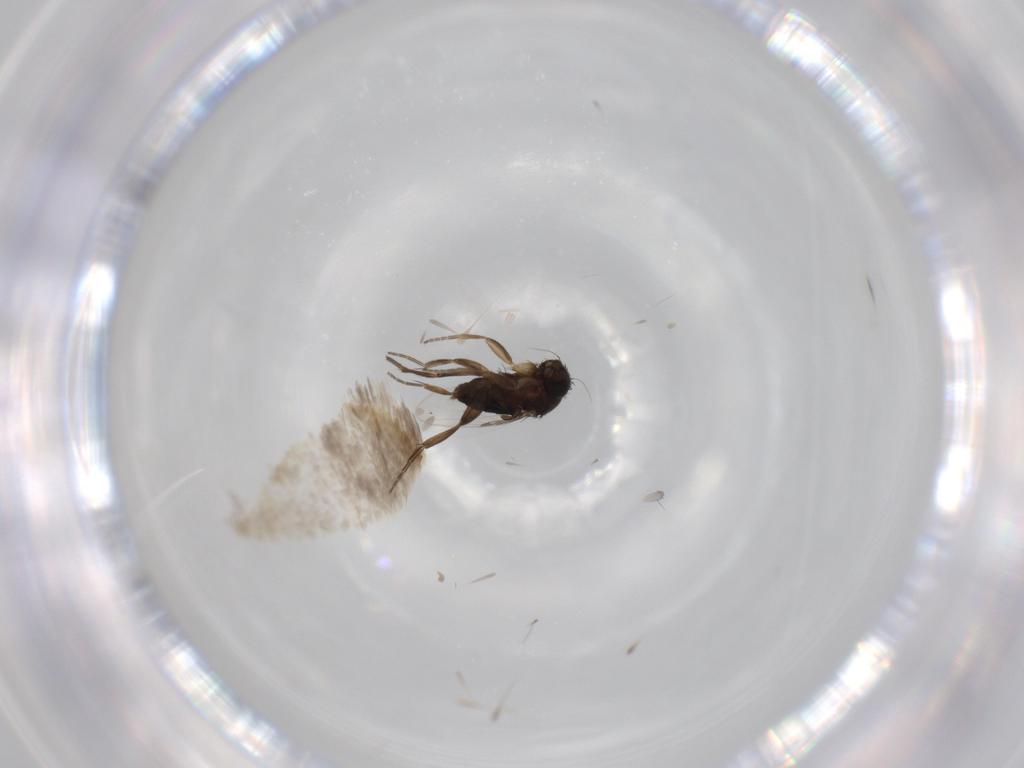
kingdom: Animalia
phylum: Arthropoda
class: Insecta
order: Diptera
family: Phoridae
